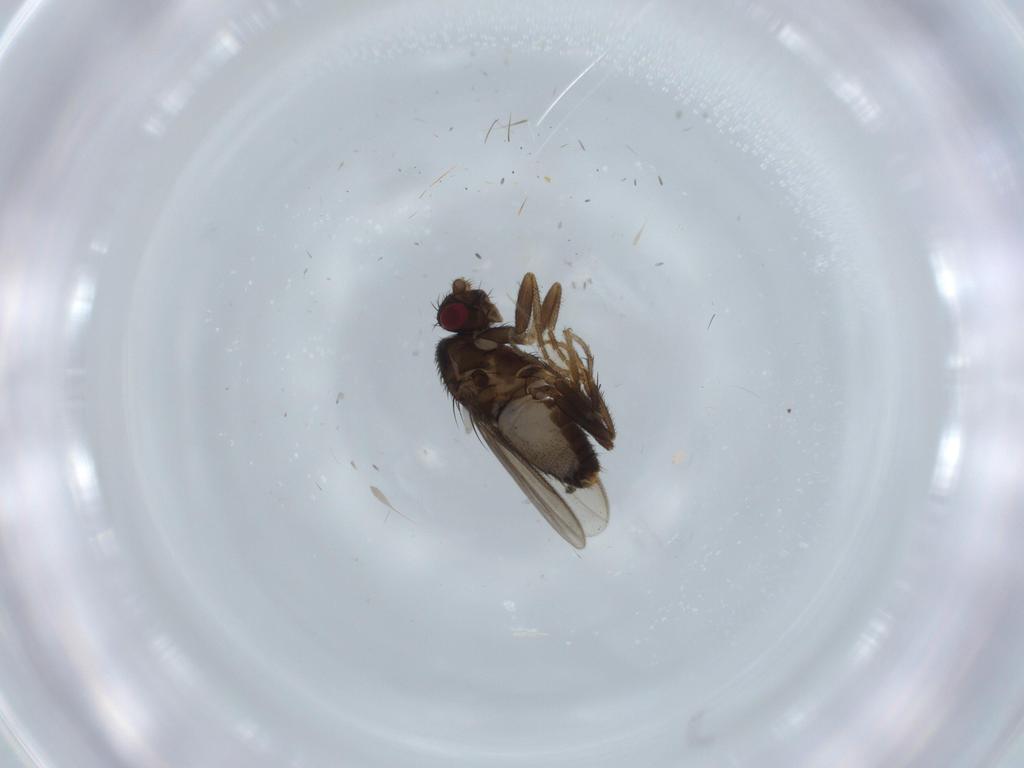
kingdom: Animalia
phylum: Arthropoda
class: Insecta
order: Diptera
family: Sphaeroceridae
